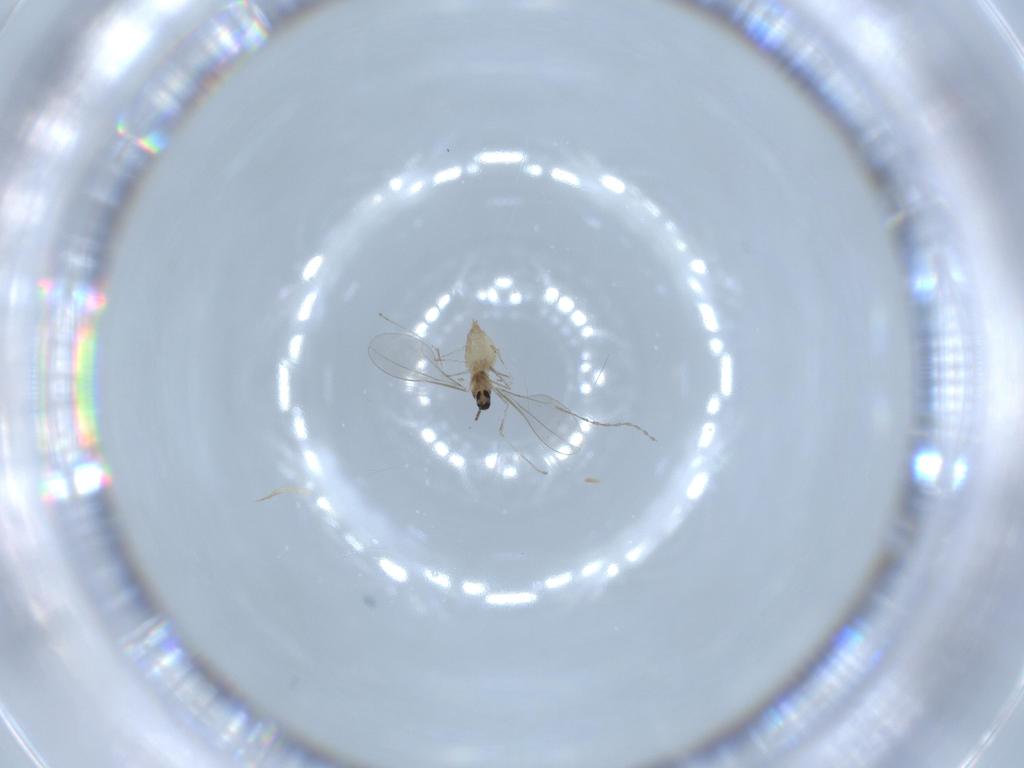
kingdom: Animalia
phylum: Arthropoda
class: Insecta
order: Diptera
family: Cecidomyiidae
